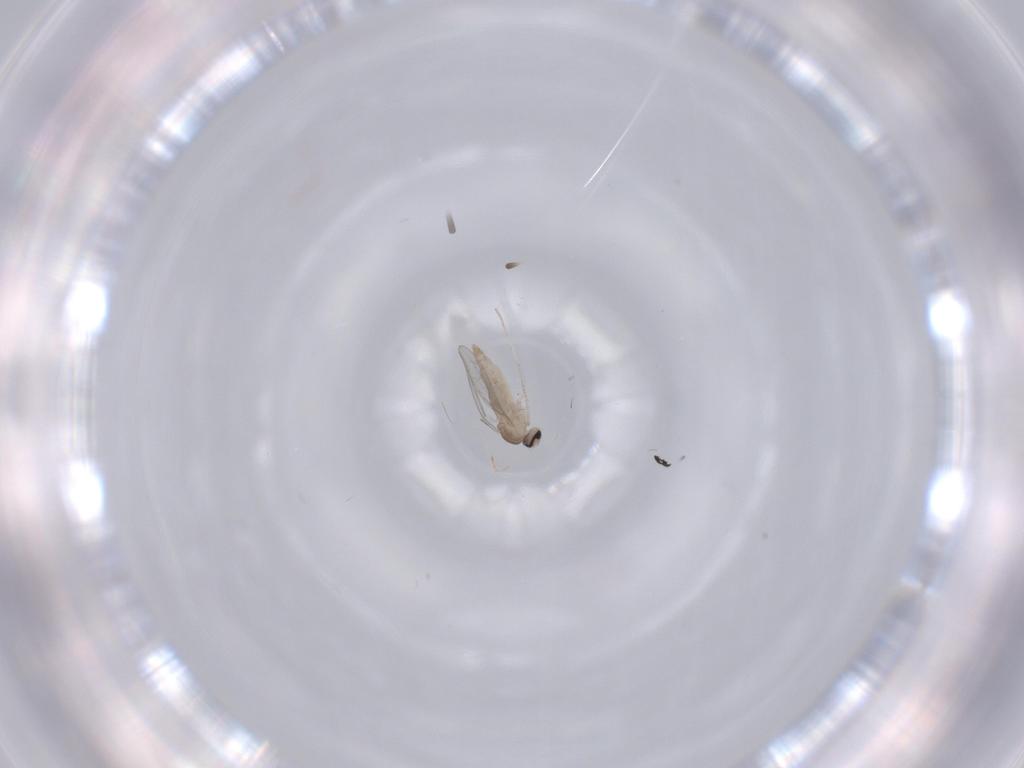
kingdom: Animalia
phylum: Arthropoda
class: Insecta
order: Diptera
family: Cecidomyiidae
